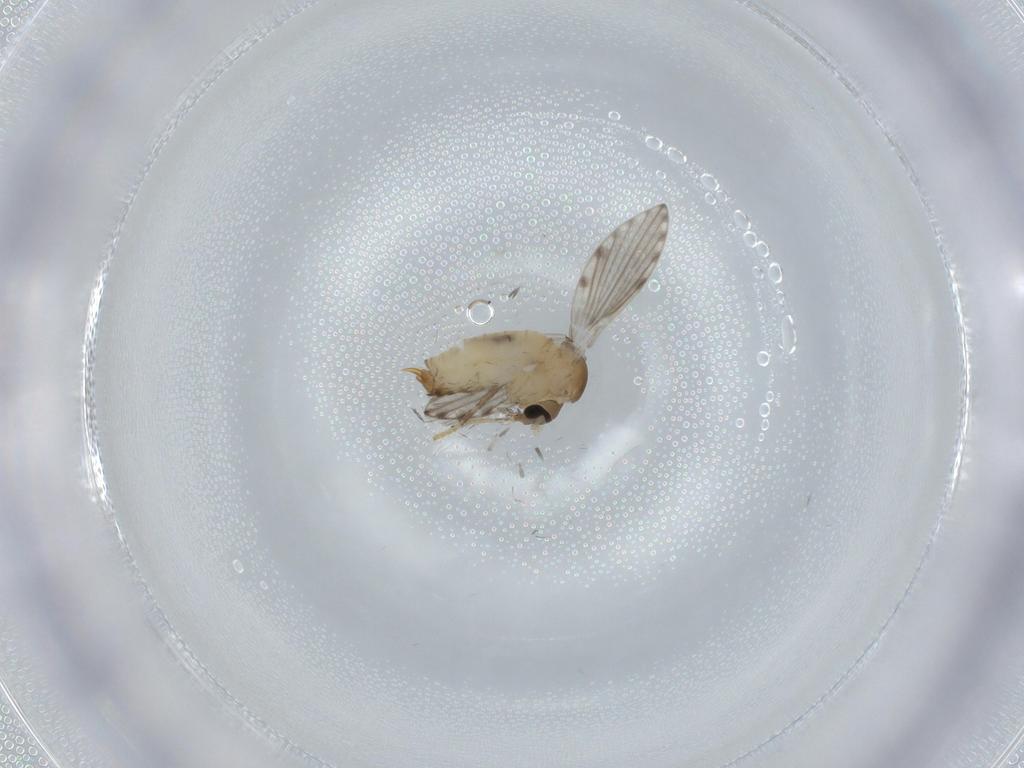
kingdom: Animalia
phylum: Arthropoda
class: Insecta
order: Diptera
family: Psychodidae
